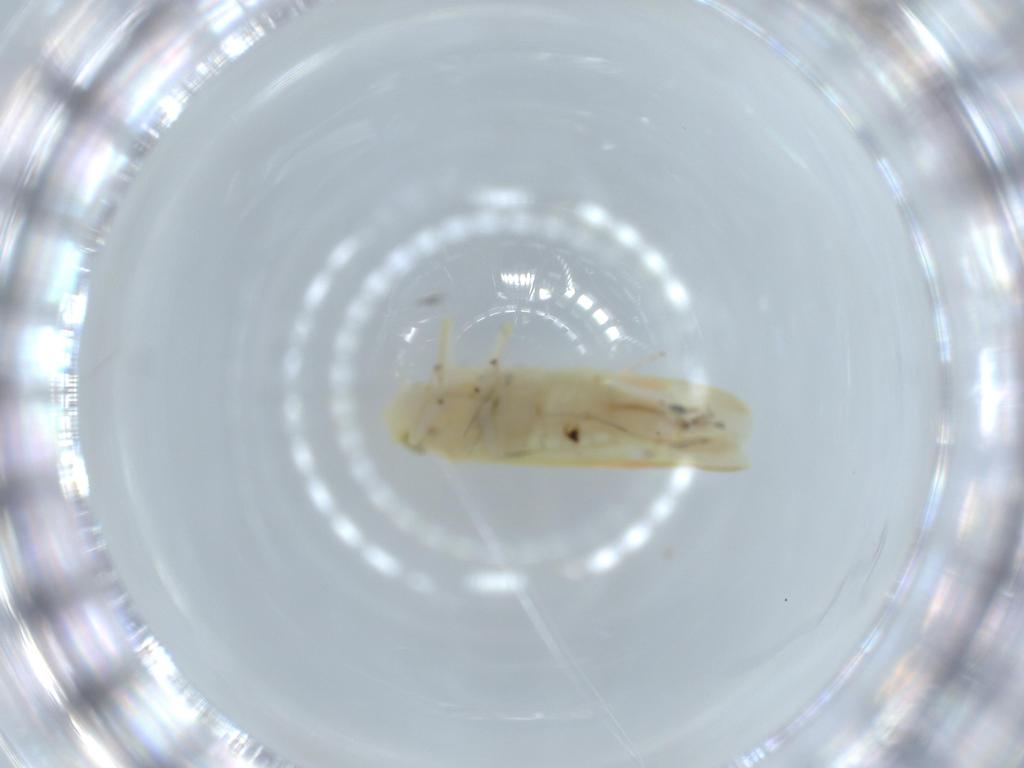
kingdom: Animalia
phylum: Arthropoda
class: Insecta
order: Hemiptera
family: Cicadellidae
